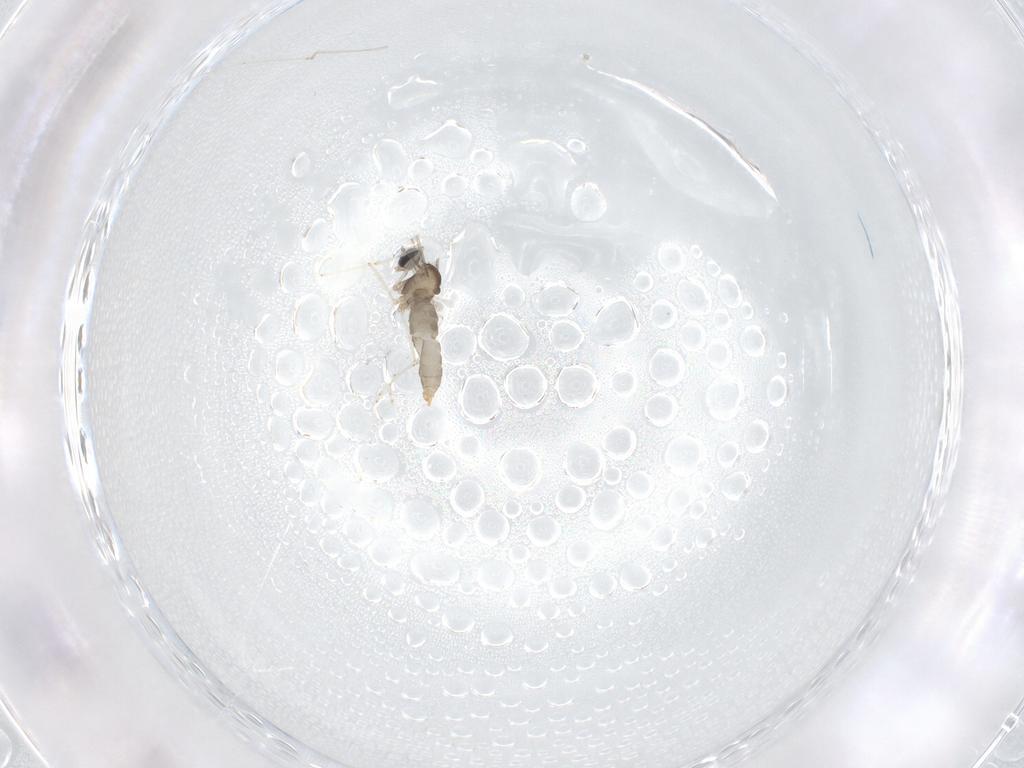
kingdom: Animalia
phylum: Arthropoda
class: Insecta
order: Diptera
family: Cecidomyiidae
